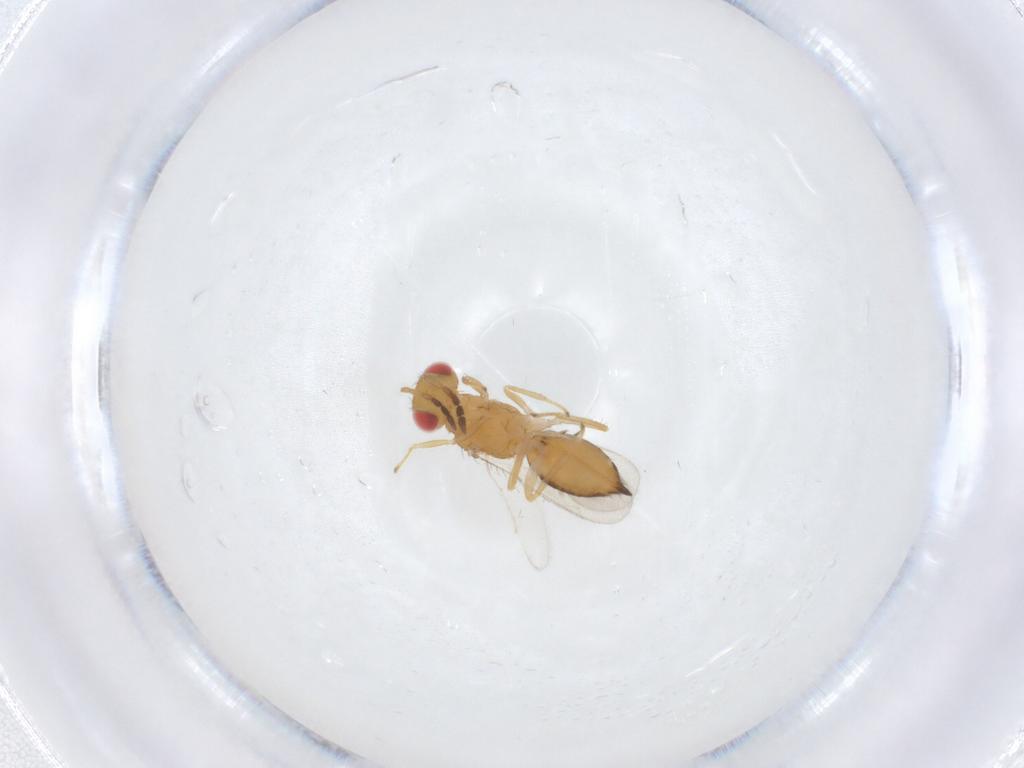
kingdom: Animalia
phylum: Arthropoda
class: Insecta
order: Hymenoptera
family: Eulophidae
